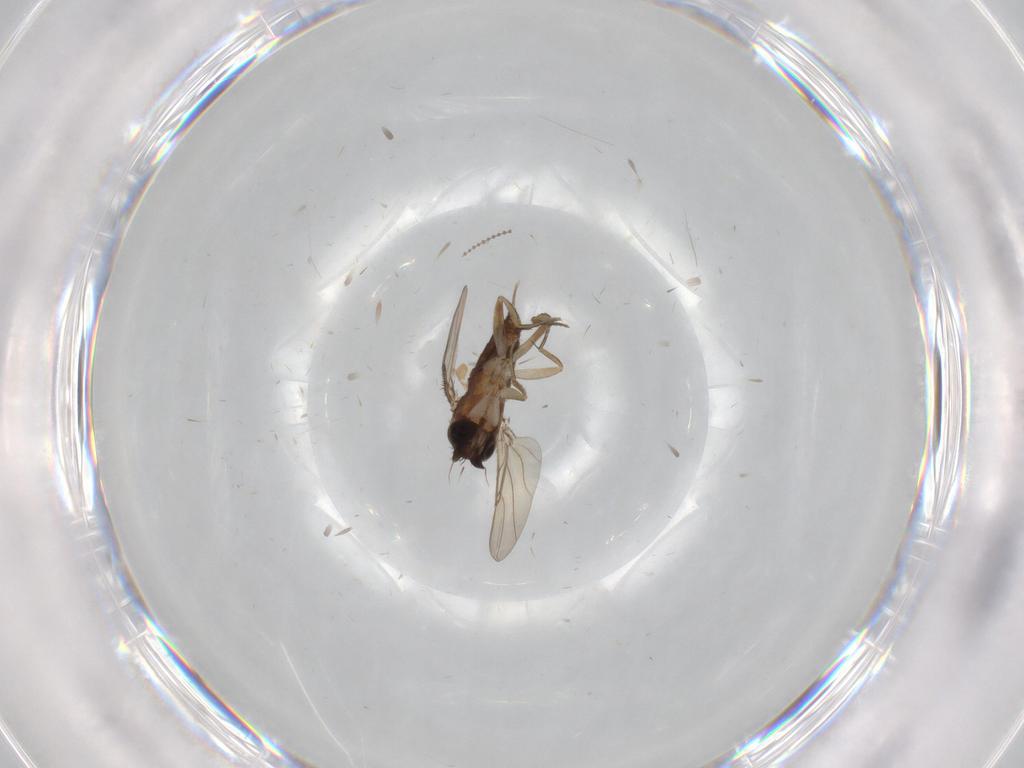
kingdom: Animalia
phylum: Arthropoda
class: Insecta
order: Diptera
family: Phoridae
